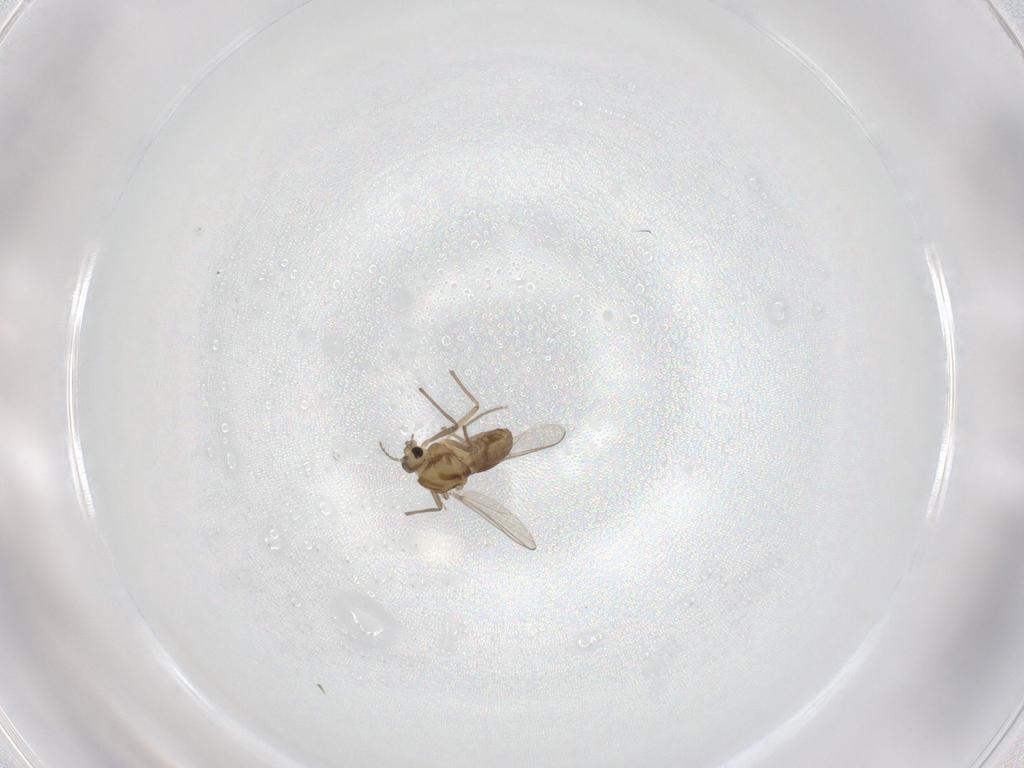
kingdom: Animalia
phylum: Arthropoda
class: Insecta
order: Diptera
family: Chironomidae
